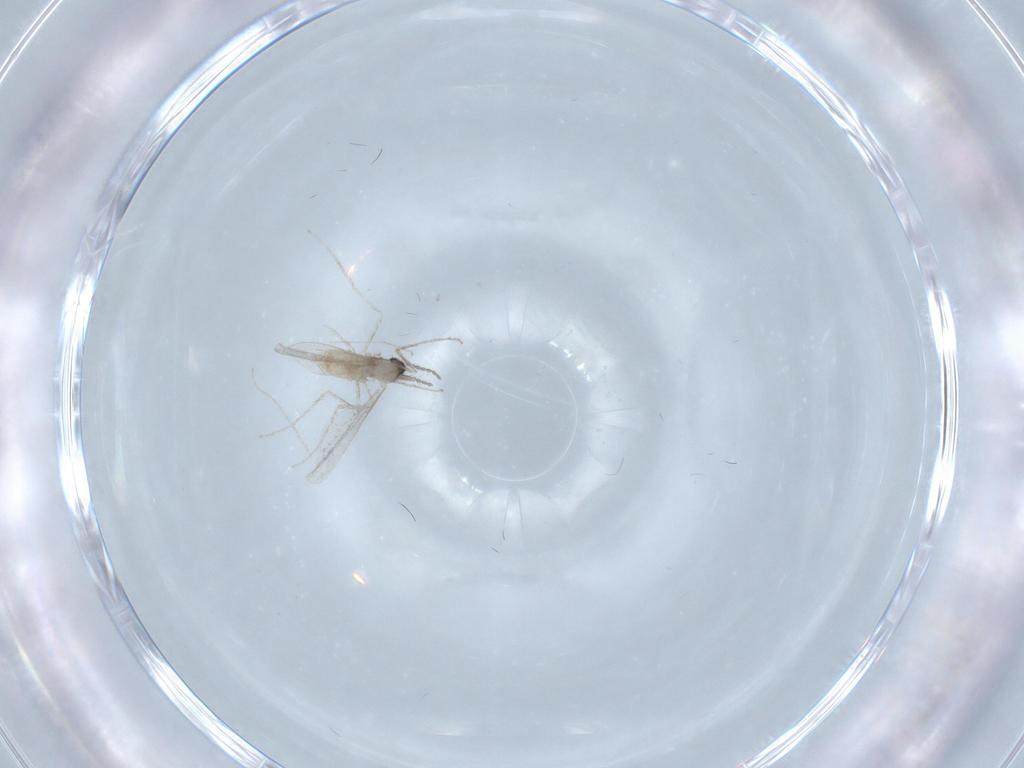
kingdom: Animalia
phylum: Arthropoda
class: Insecta
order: Diptera
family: Cecidomyiidae
